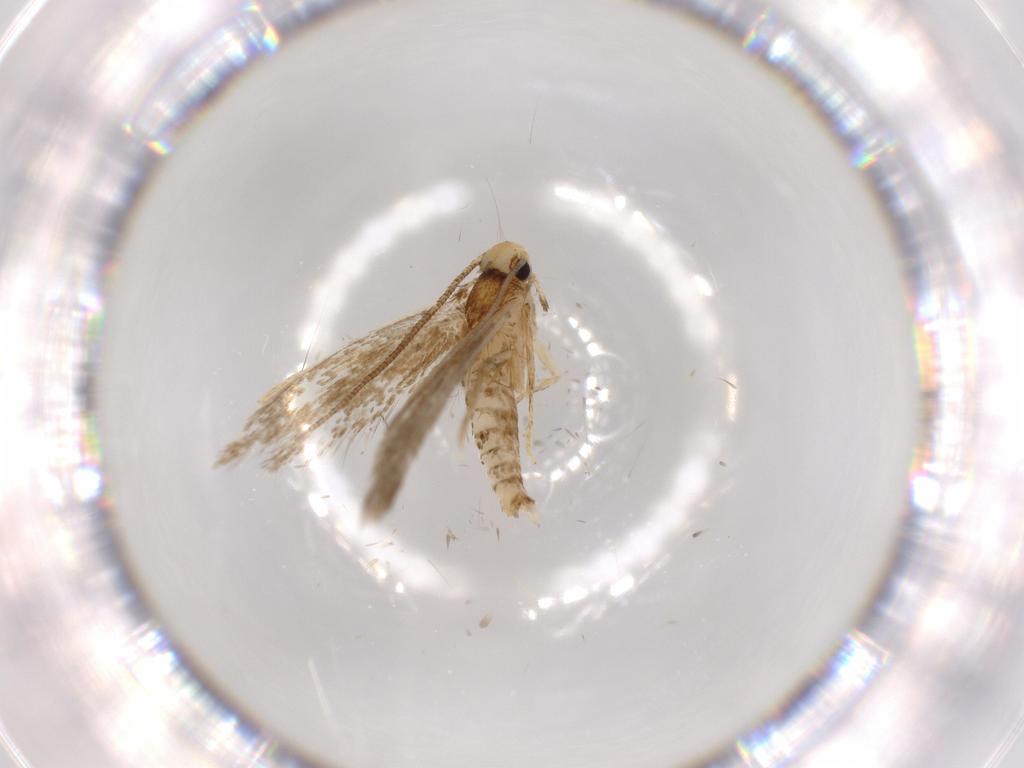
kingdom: Animalia
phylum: Arthropoda
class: Insecta
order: Lepidoptera
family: Tineidae
